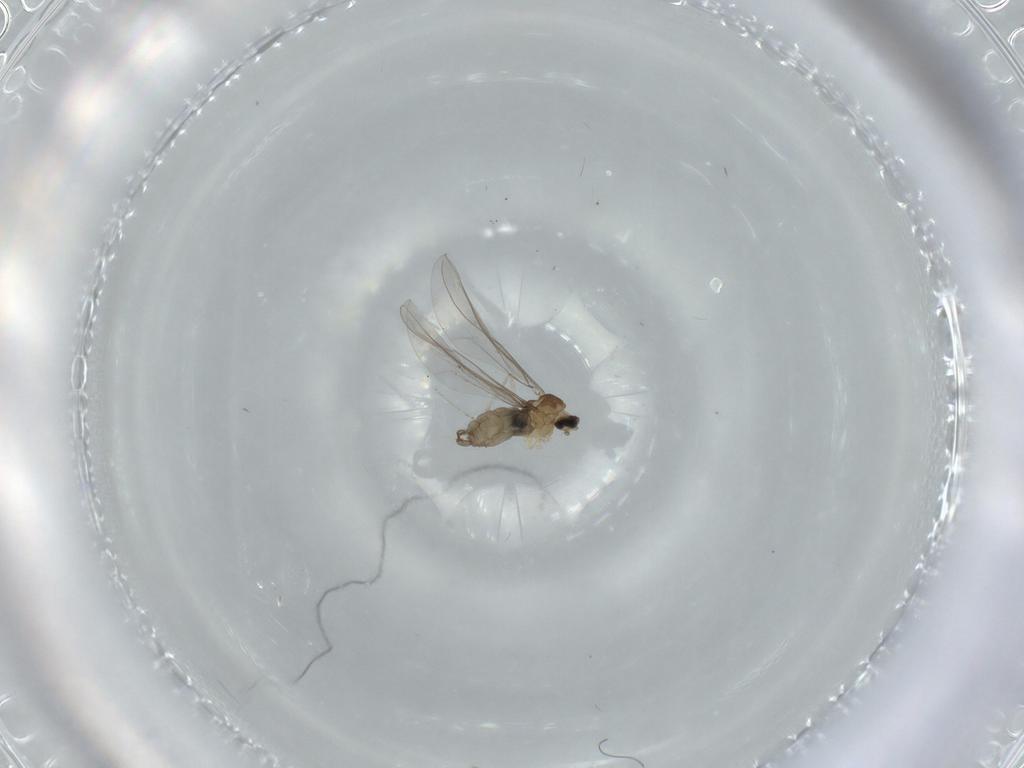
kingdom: Animalia
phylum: Arthropoda
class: Insecta
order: Diptera
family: Cecidomyiidae
